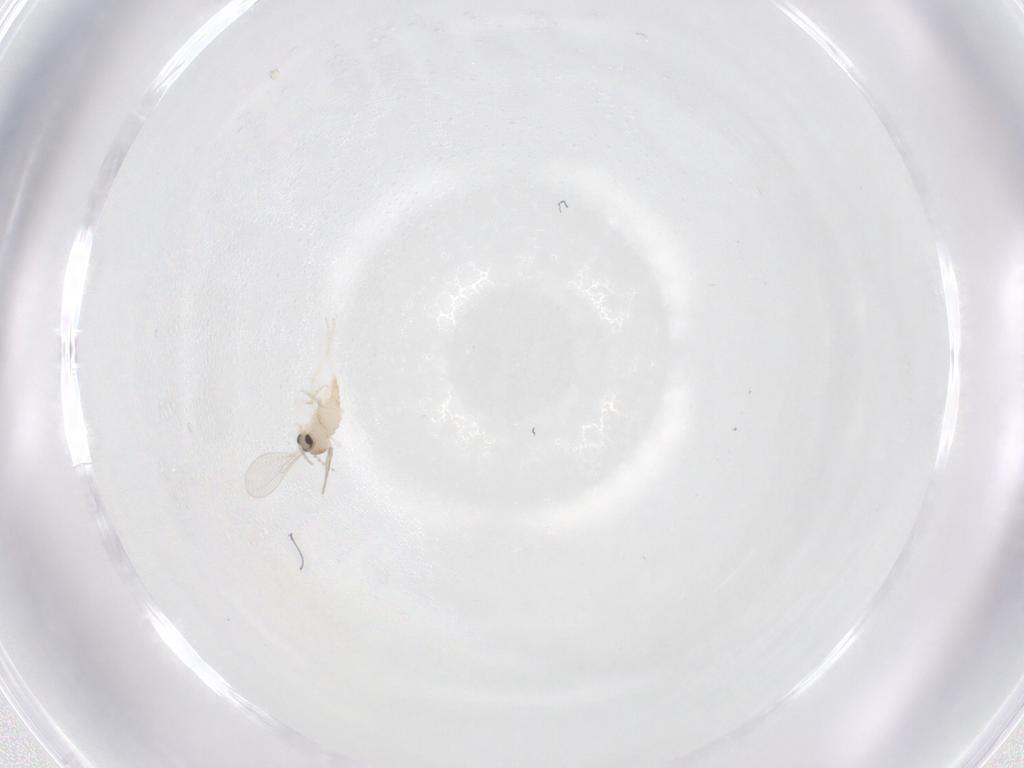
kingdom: Animalia
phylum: Arthropoda
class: Insecta
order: Diptera
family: Cecidomyiidae
